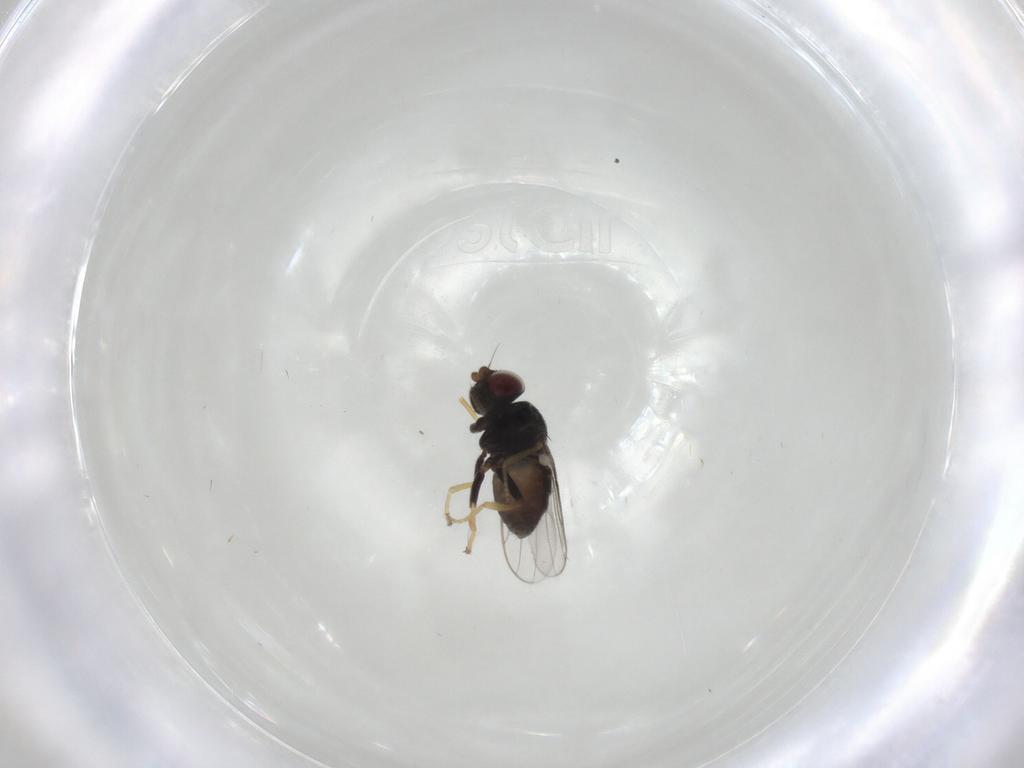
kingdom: Animalia
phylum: Arthropoda
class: Insecta
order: Diptera
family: Chloropidae
